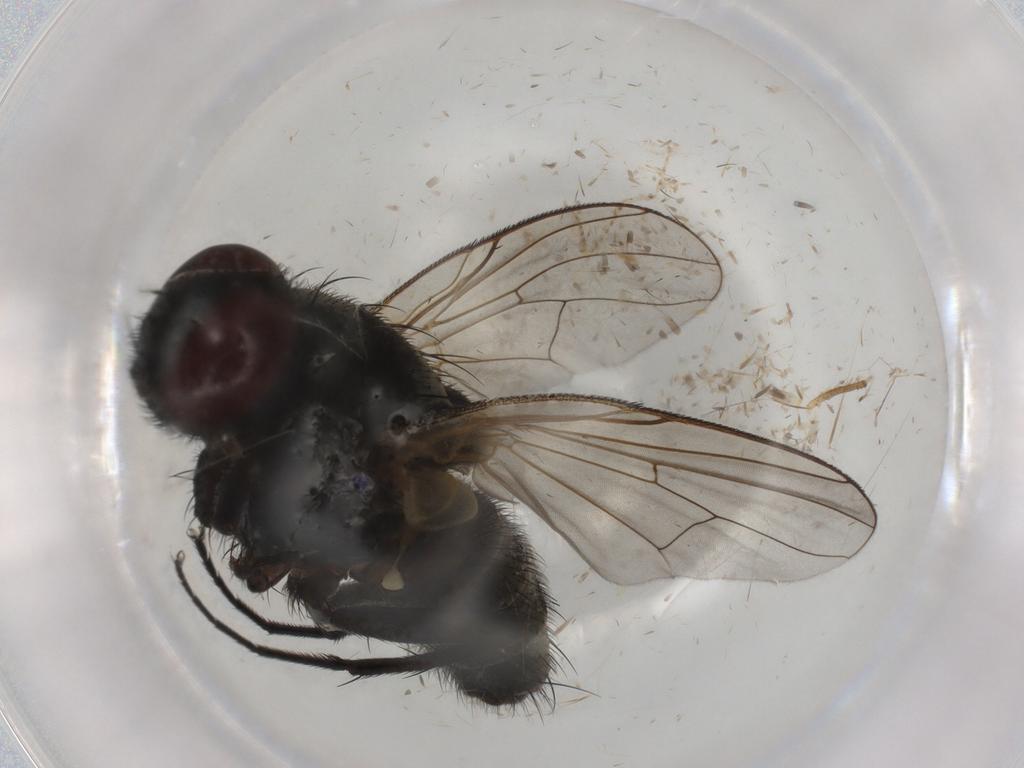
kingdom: Animalia
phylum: Arthropoda
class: Insecta
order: Diptera
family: Muscidae
